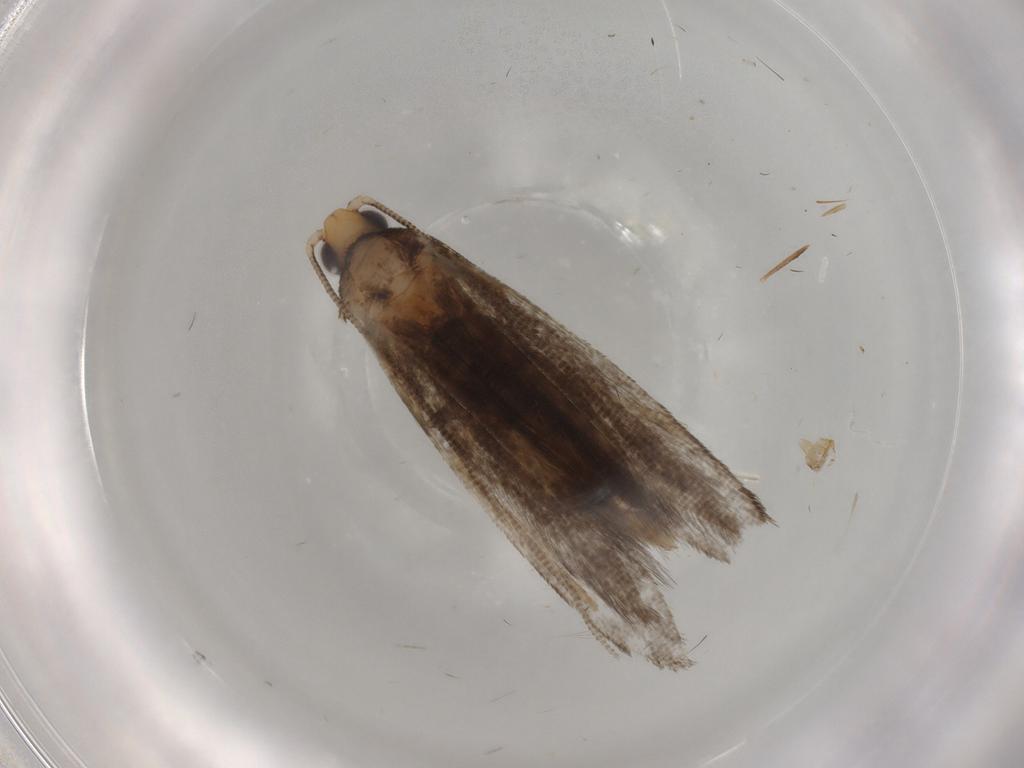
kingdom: Animalia
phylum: Arthropoda
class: Insecta
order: Lepidoptera
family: Tineidae
